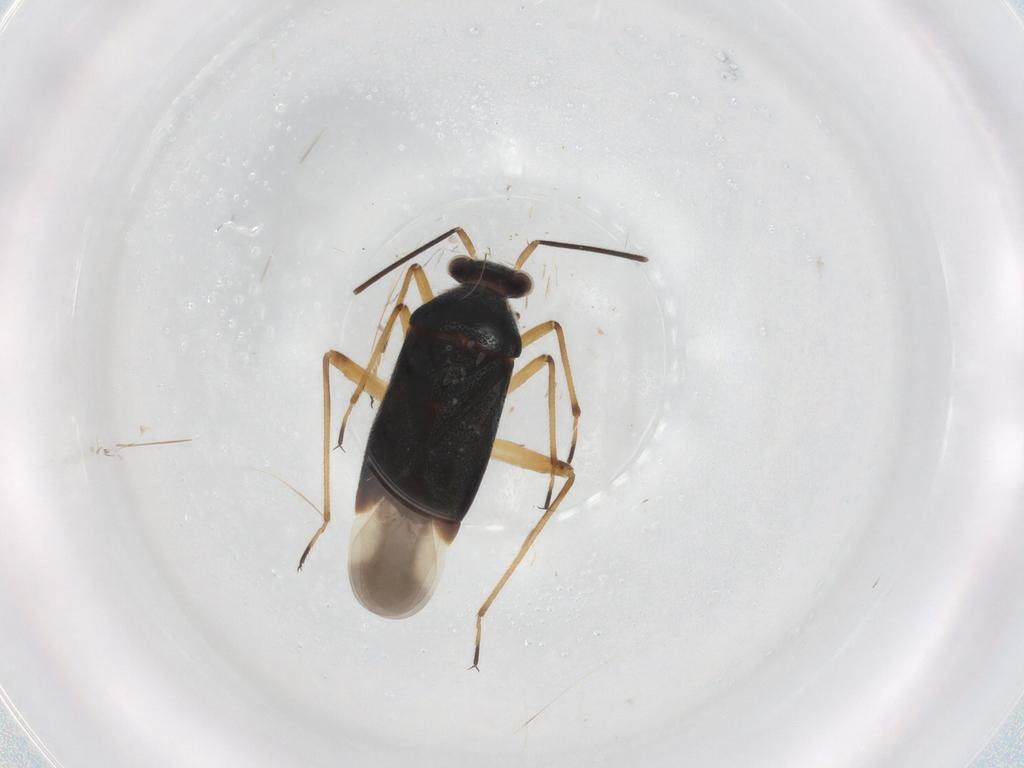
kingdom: Animalia
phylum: Arthropoda
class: Insecta
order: Hemiptera
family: Miridae
